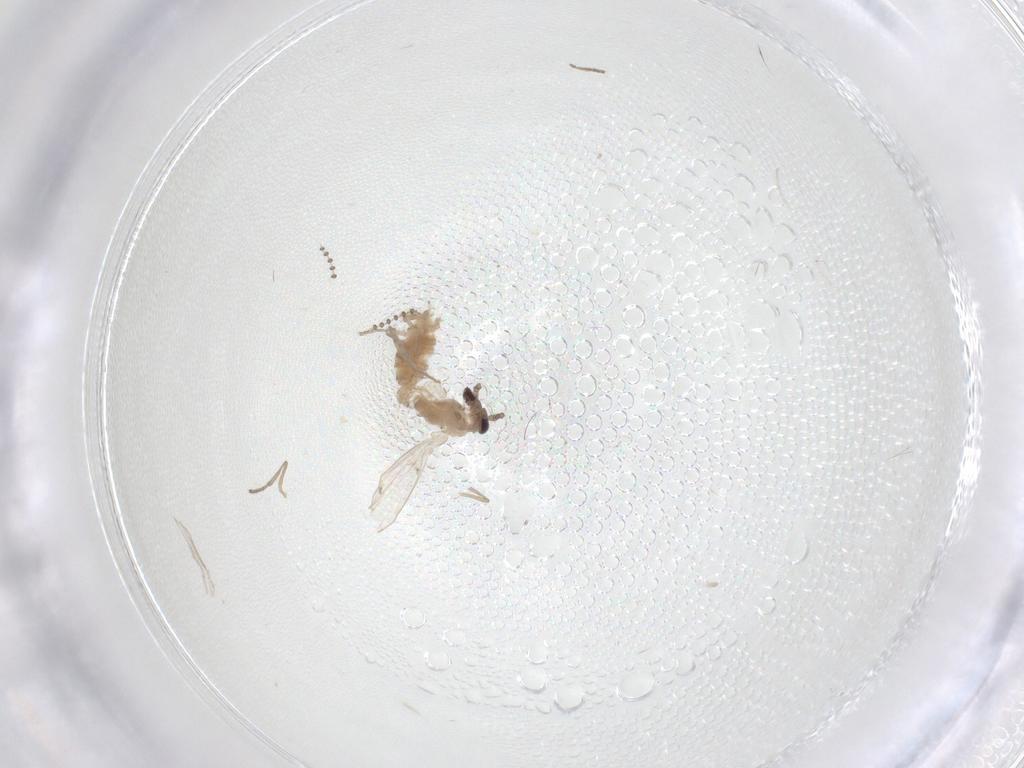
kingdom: Animalia
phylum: Arthropoda
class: Insecta
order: Diptera
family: Psychodidae
